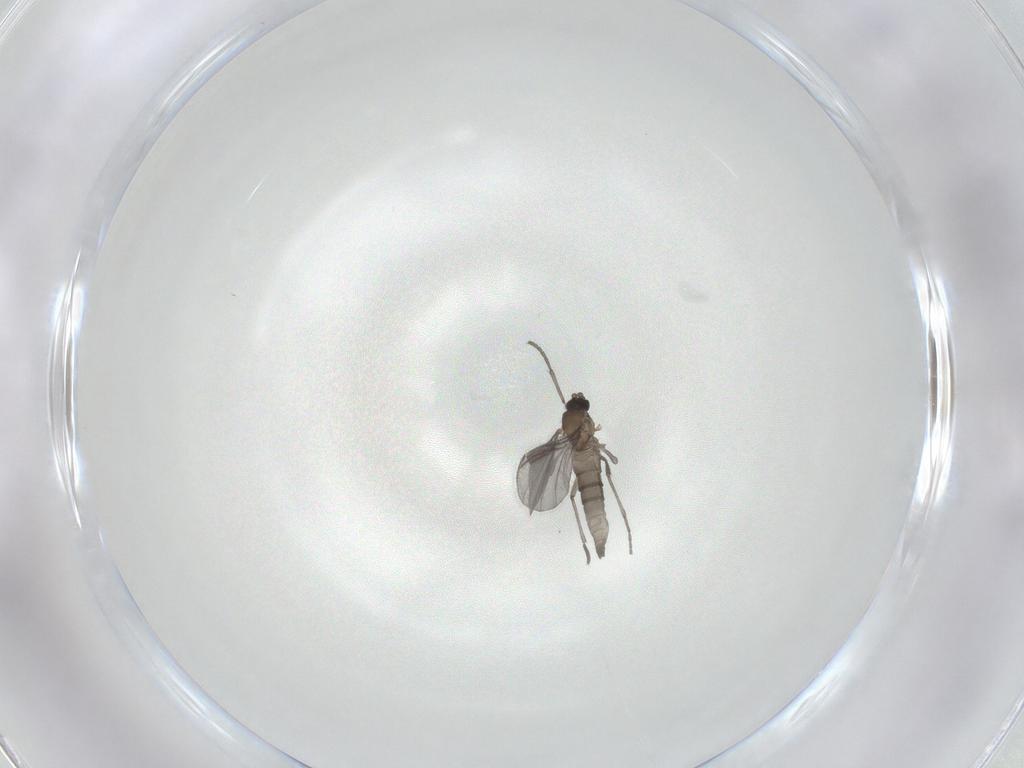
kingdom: Animalia
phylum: Arthropoda
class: Insecta
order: Diptera
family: Sciaridae
